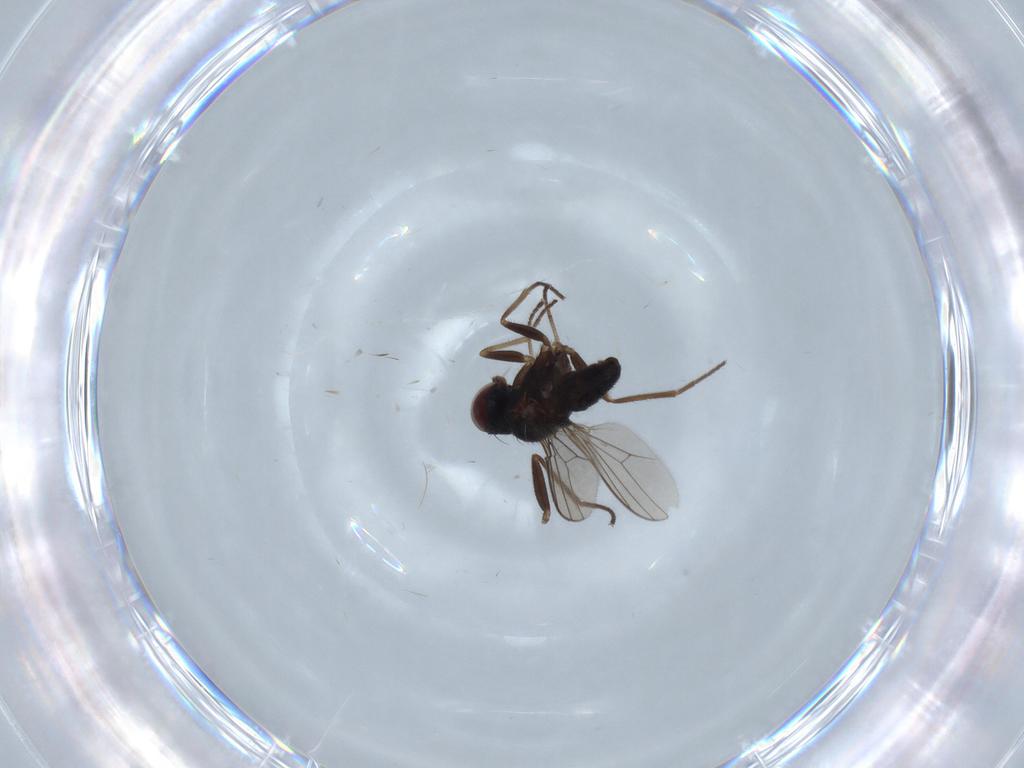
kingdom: Animalia
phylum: Arthropoda
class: Insecta
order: Diptera
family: Dolichopodidae
